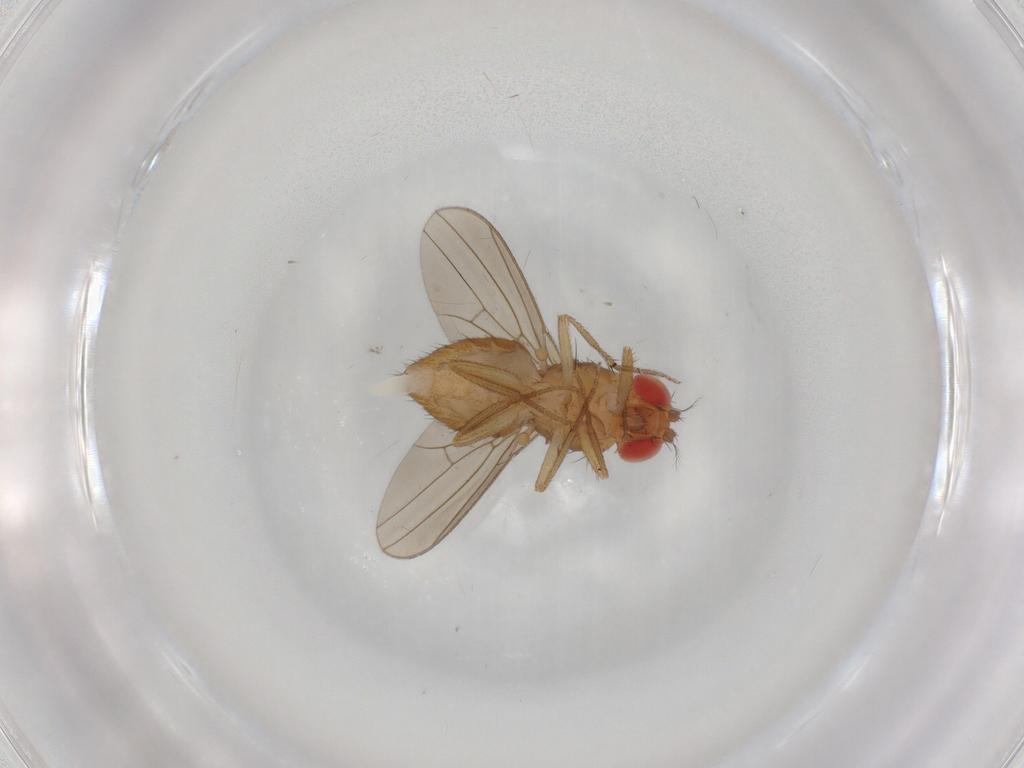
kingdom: Animalia
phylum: Arthropoda
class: Insecta
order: Diptera
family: Drosophilidae
